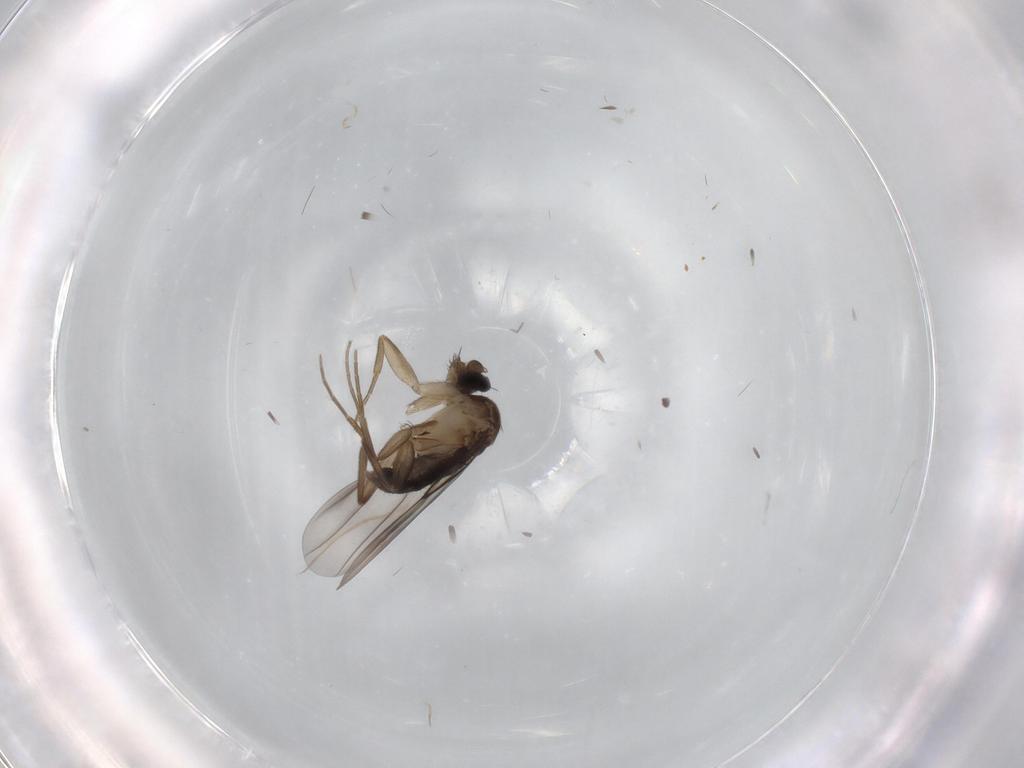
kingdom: Animalia
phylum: Arthropoda
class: Insecta
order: Diptera
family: Phoridae
